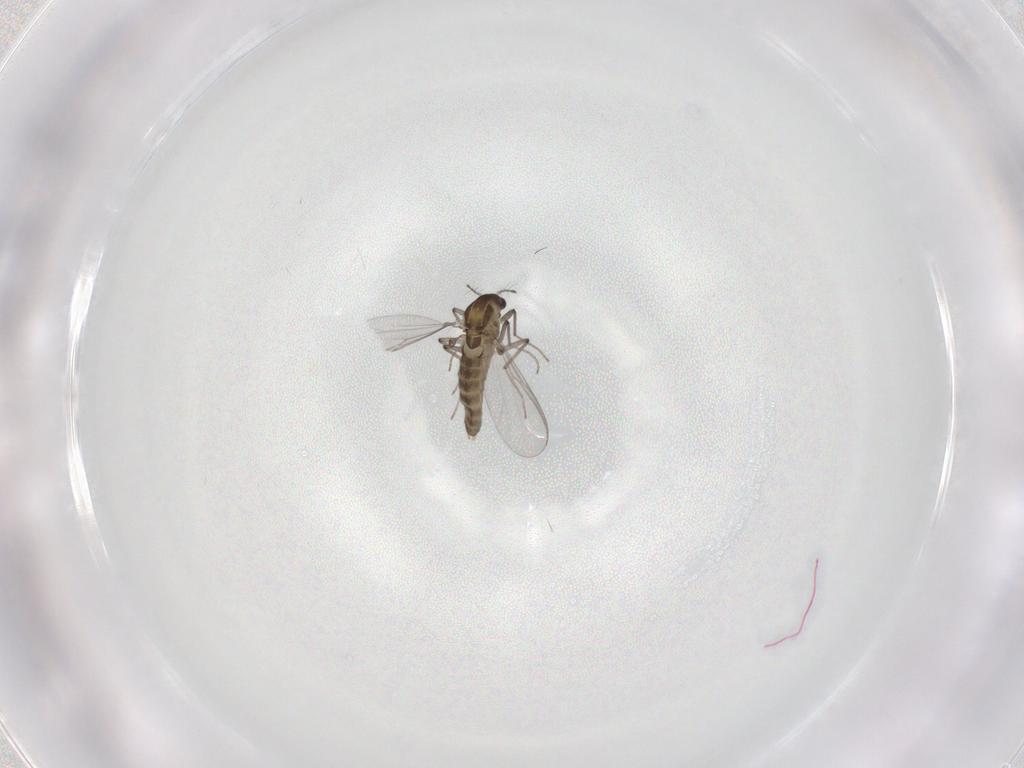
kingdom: Animalia
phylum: Arthropoda
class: Insecta
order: Diptera
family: Chironomidae
